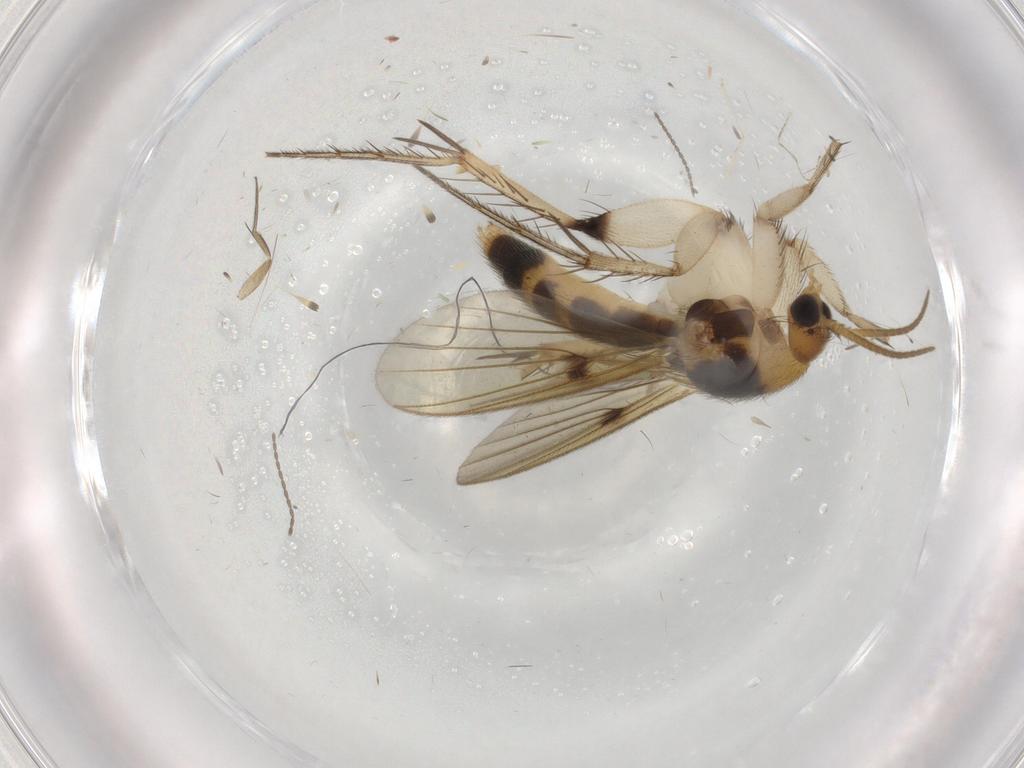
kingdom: Animalia
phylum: Arthropoda
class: Insecta
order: Diptera
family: Mycetophilidae
